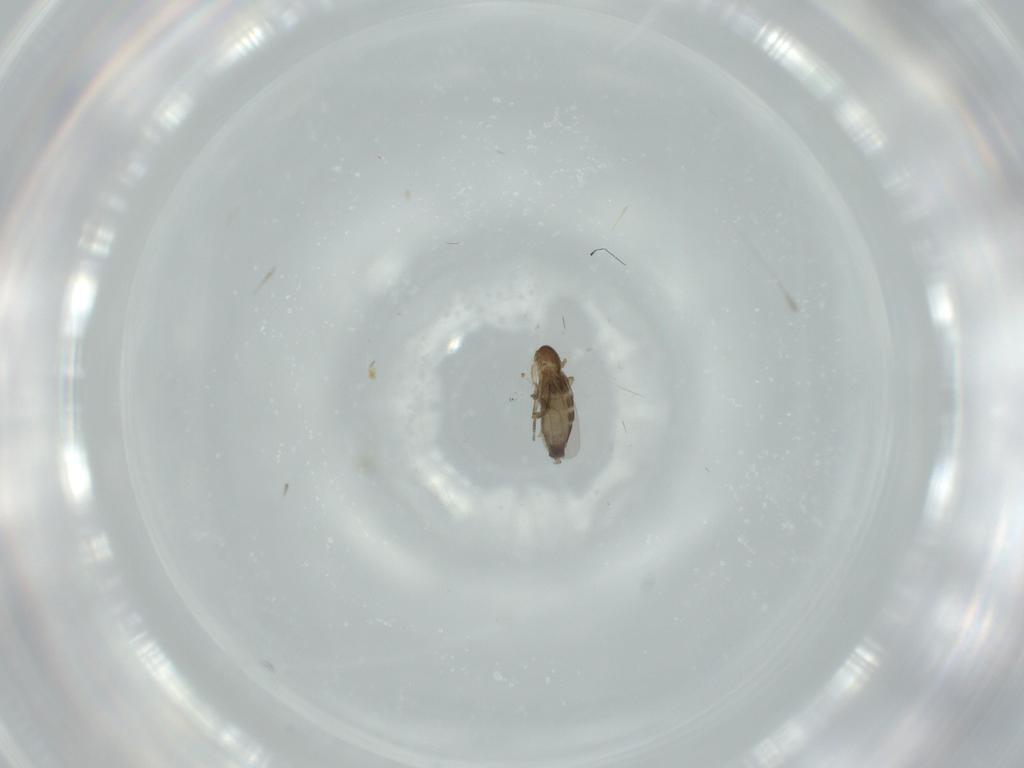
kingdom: Animalia
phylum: Arthropoda
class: Insecta
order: Diptera
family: Phoridae
